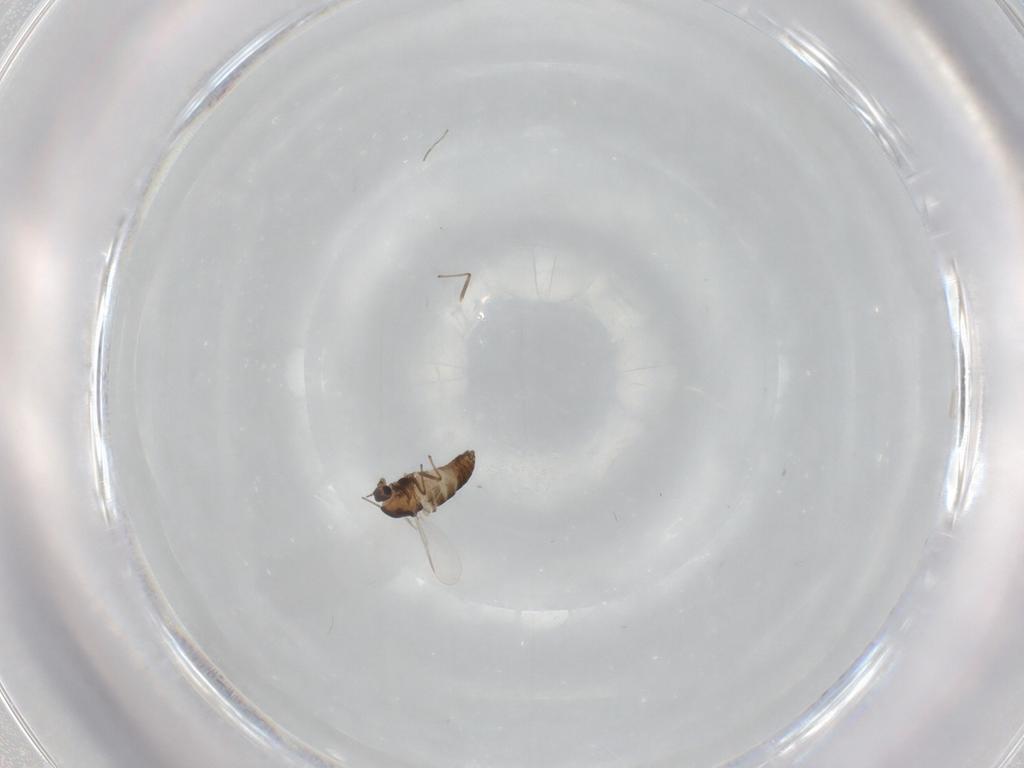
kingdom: Animalia
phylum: Arthropoda
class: Insecta
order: Diptera
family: Chironomidae
